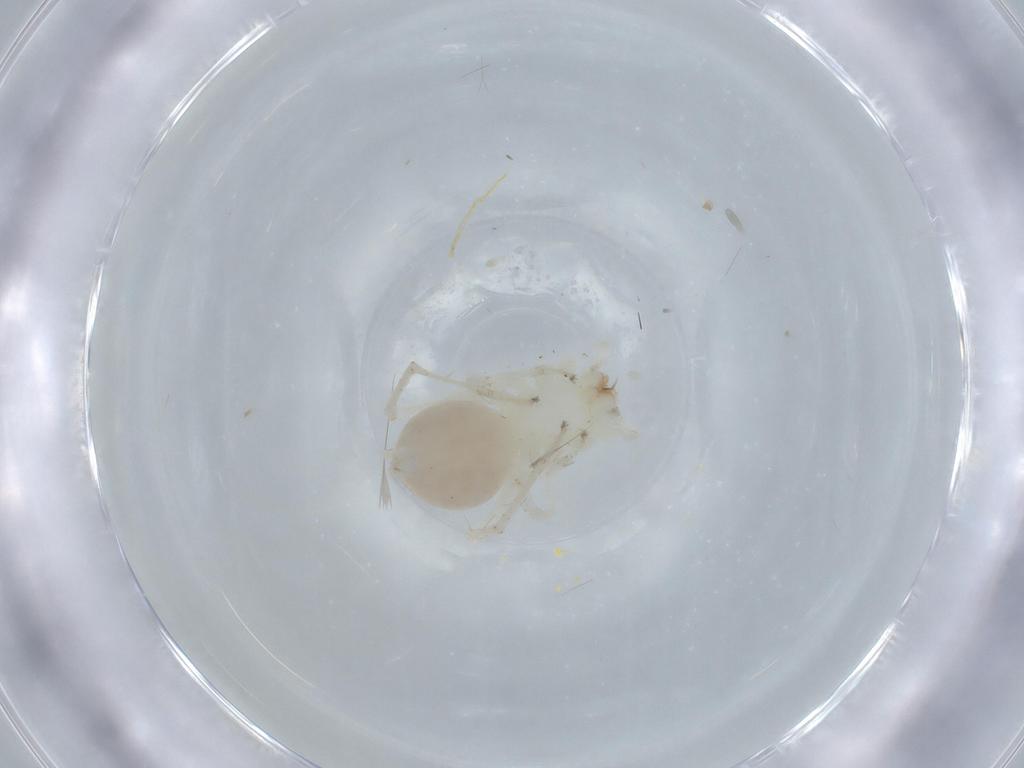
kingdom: Animalia
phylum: Arthropoda
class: Arachnida
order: Araneae
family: Anyphaenidae
